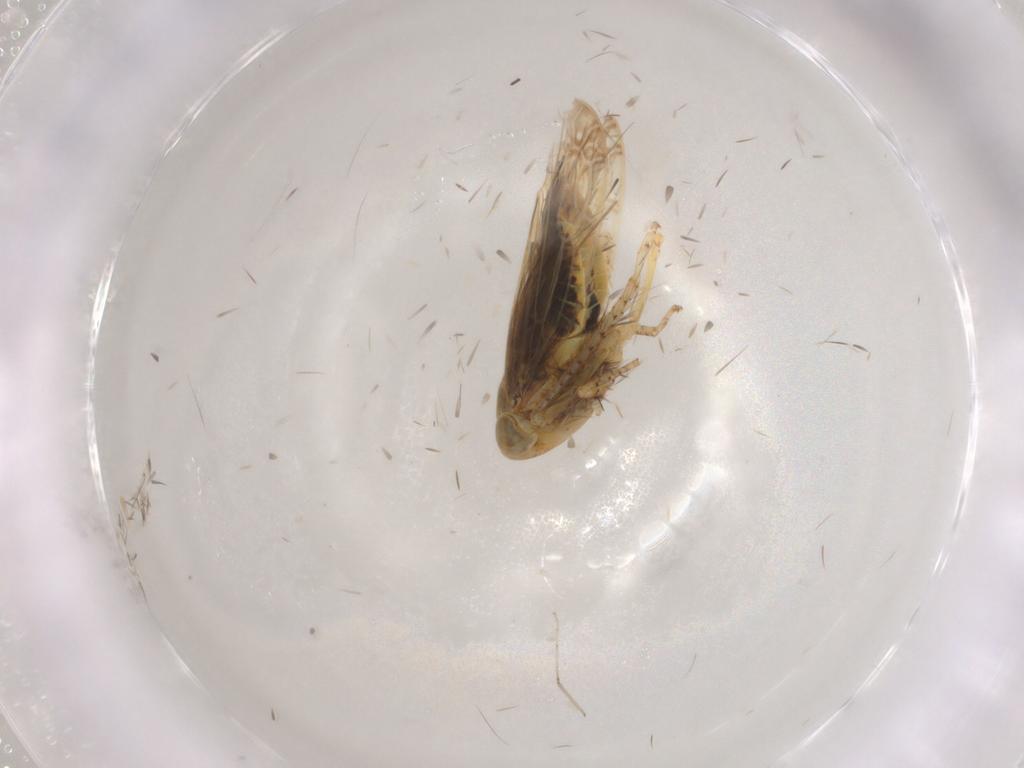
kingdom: Animalia
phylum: Arthropoda
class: Insecta
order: Hemiptera
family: Cicadellidae
